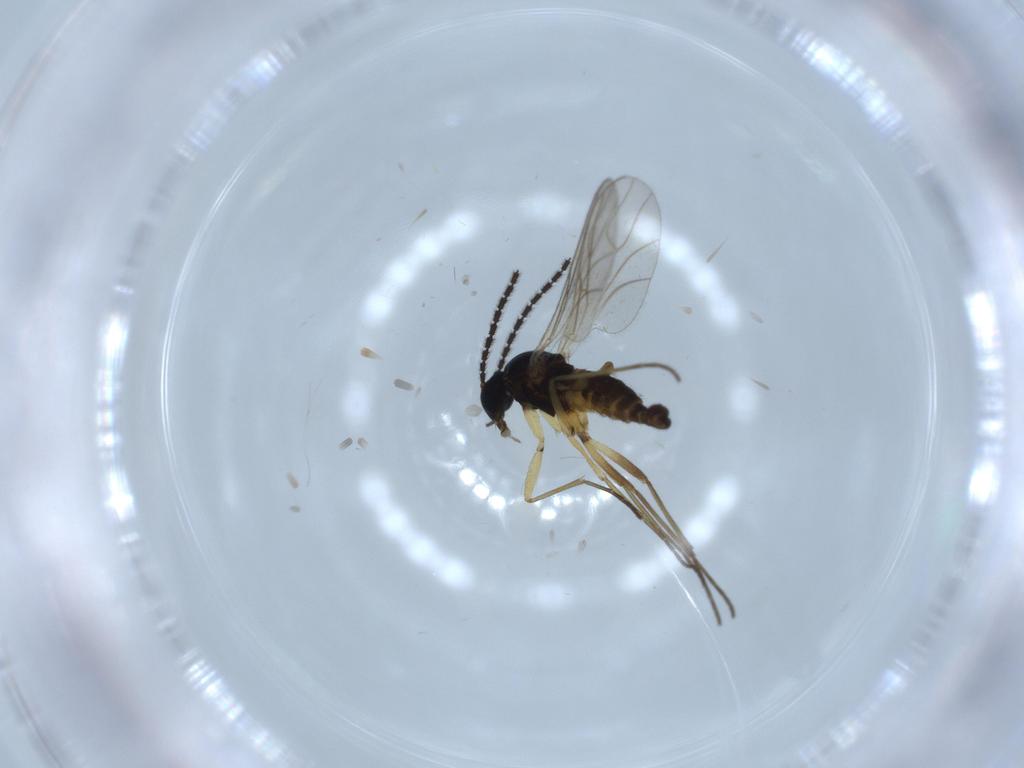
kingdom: Animalia
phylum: Arthropoda
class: Insecta
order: Diptera
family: Sciaridae
